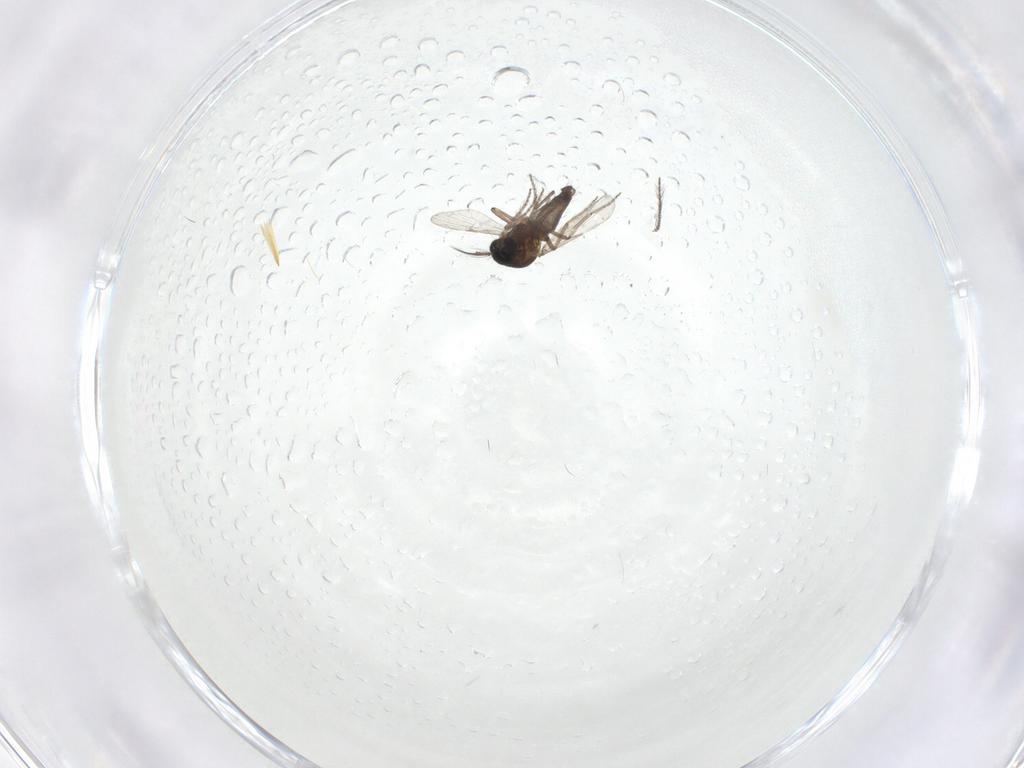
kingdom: Animalia
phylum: Arthropoda
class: Insecta
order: Diptera
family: Cecidomyiidae
